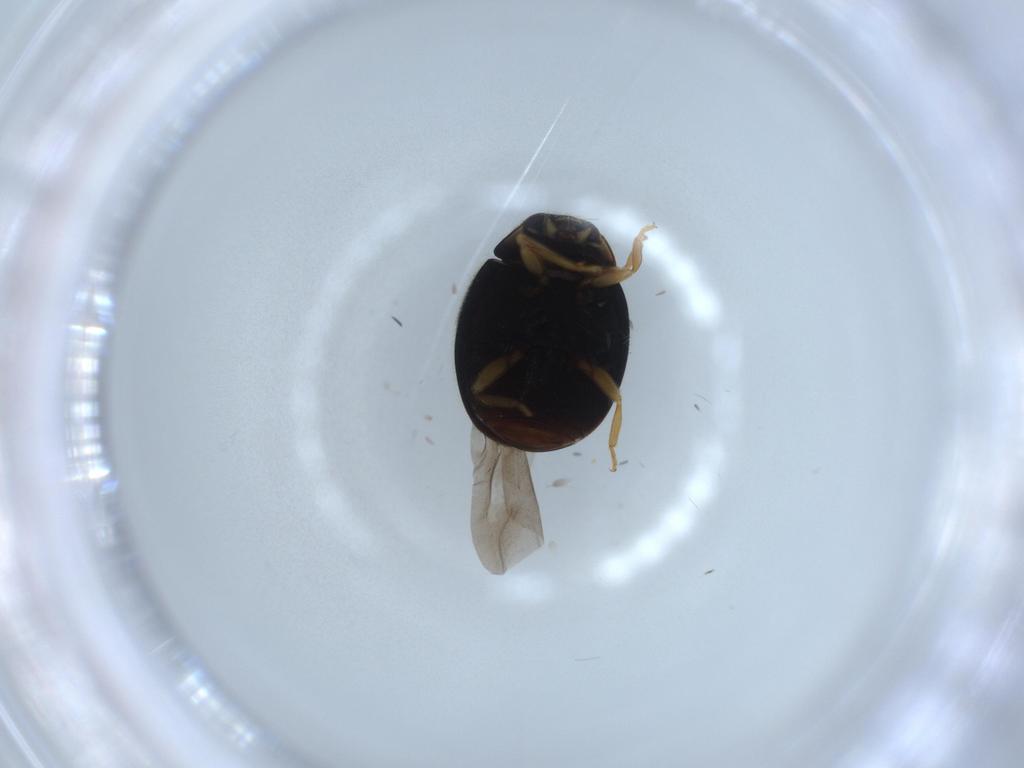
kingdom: Animalia
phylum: Arthropoda
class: Insecta
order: Coleoptera
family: Coccinellidae
